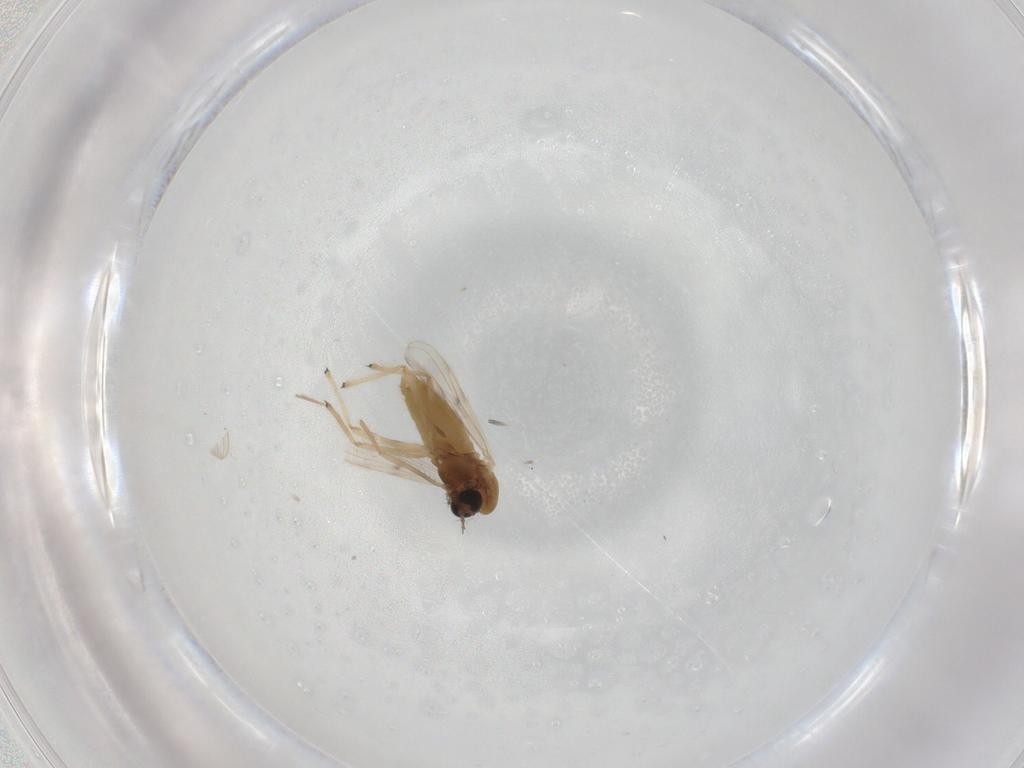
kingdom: Animalia
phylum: Arthropoda
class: Insecta
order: Diptera
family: Chironomidae
